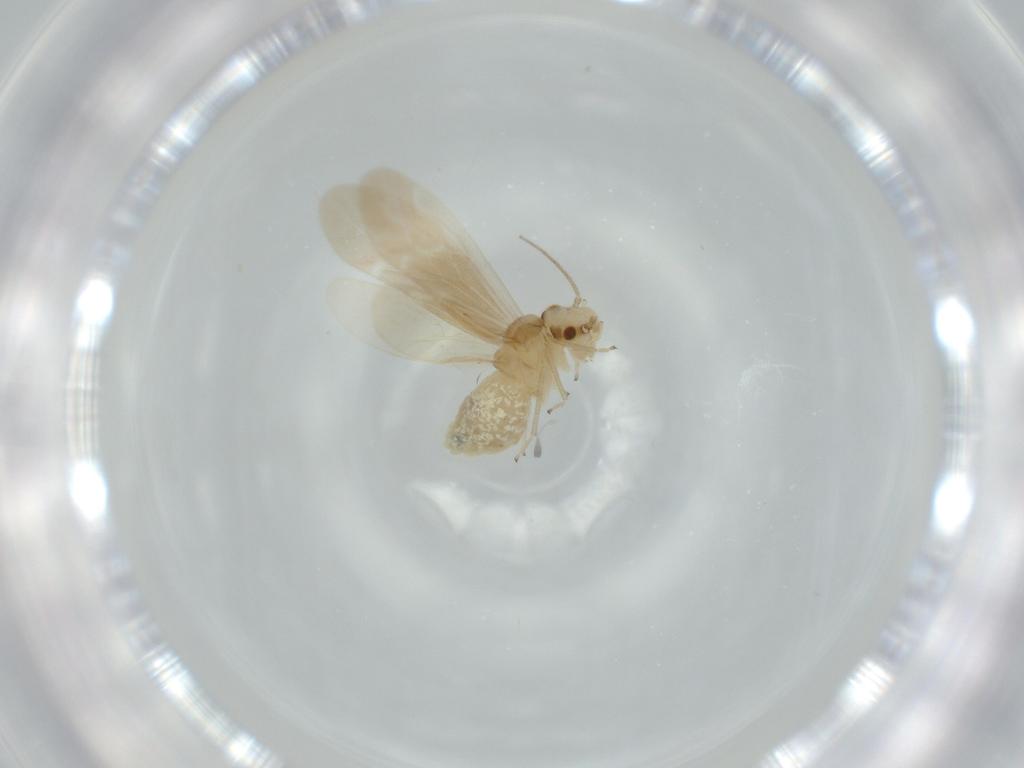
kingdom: Animalia
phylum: Arthropoda
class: Insecta
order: Psocodea
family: Caeciliusidae
